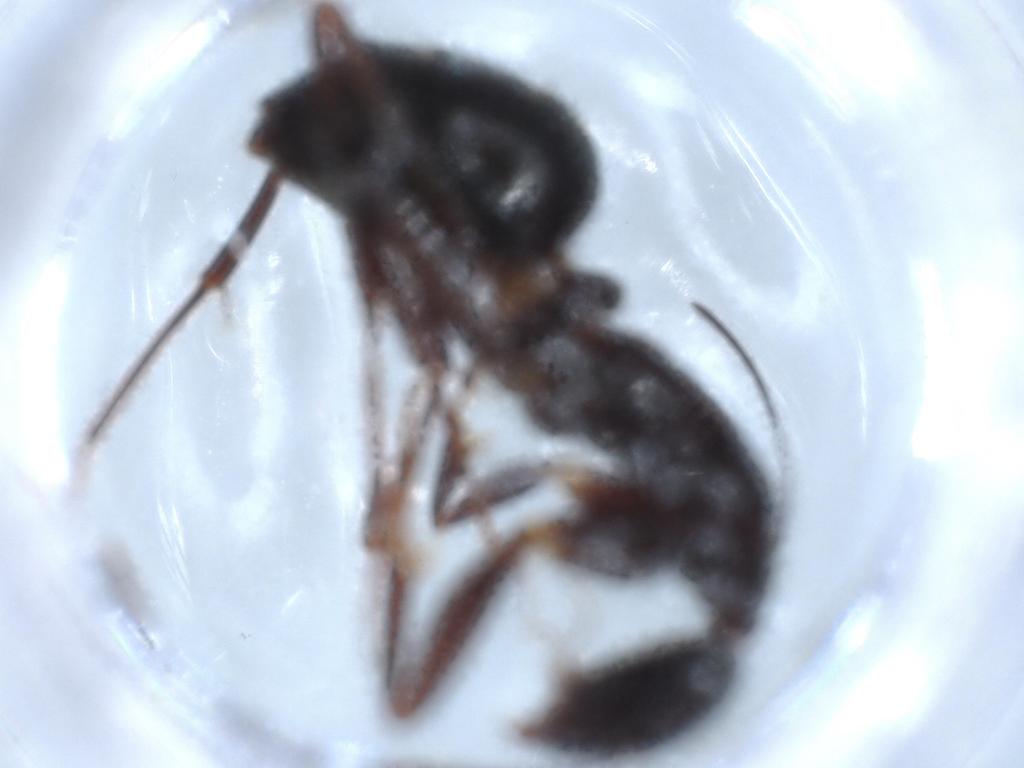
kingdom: Animalia
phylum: Arthropoda
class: Insecta
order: Hymenoptera
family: Formicidae
